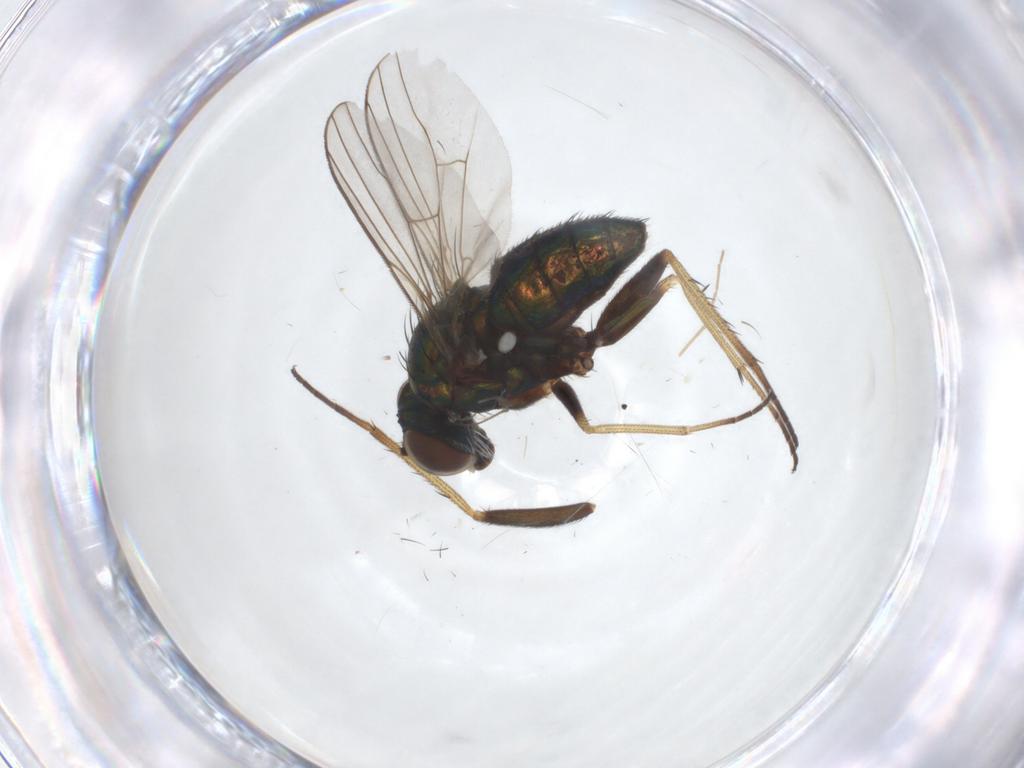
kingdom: Animalia
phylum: Arthropoda
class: Insecta
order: Diptera
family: Dolichopodidae
